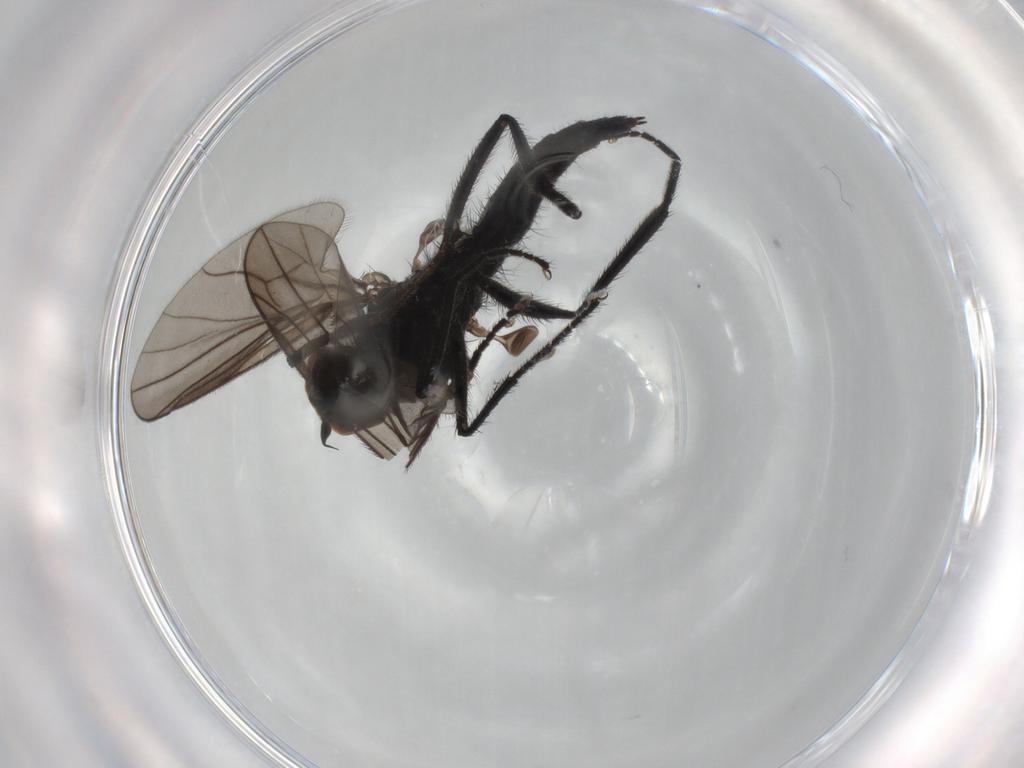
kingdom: Animalia
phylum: Arthropoda
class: Insecta
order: Diptera
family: Hybotidae
